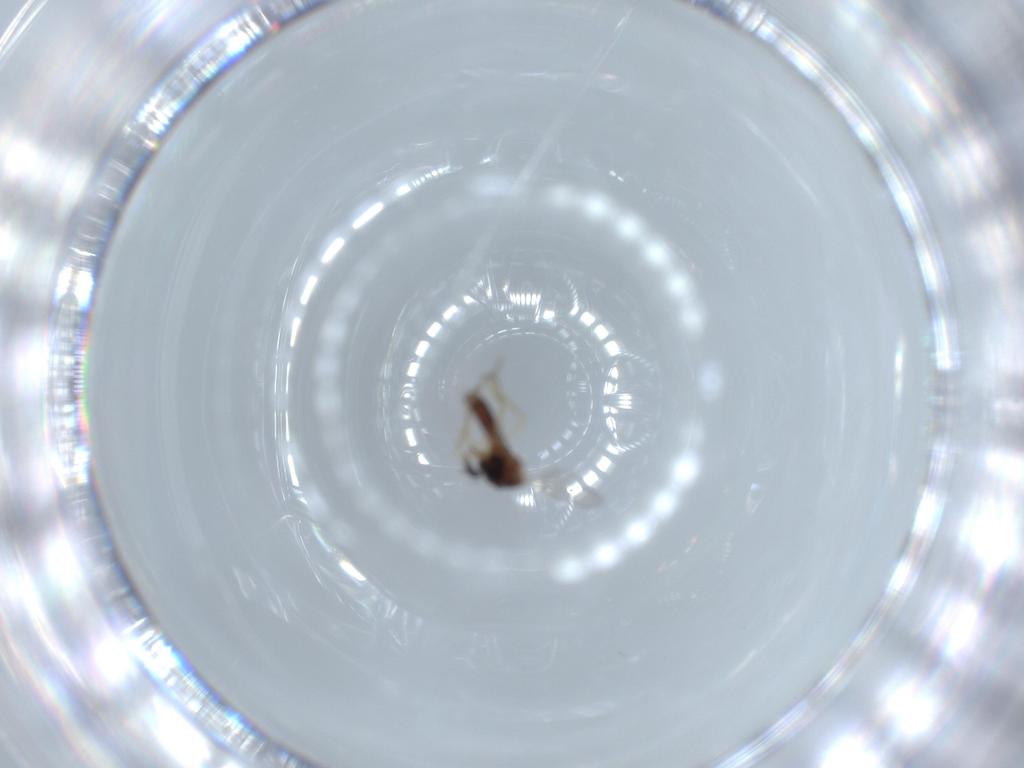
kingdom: Animalia
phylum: Arthropoda
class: Insecta
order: Diptera
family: Ceratopogonidae
